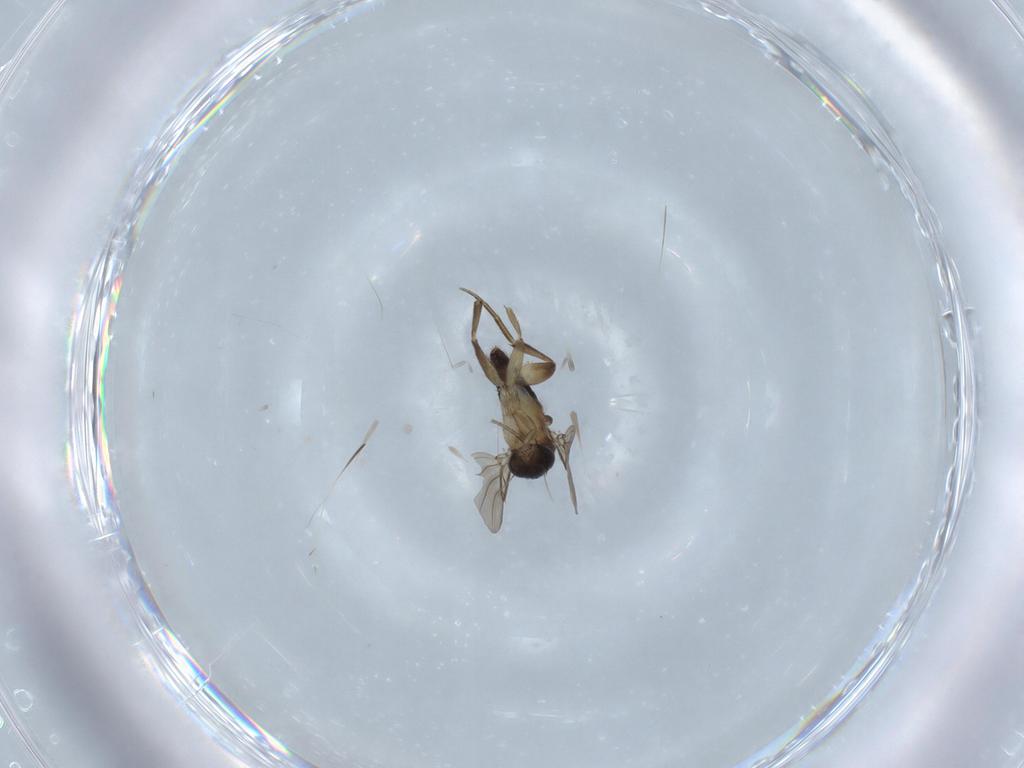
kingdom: Animalia
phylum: Arthropoda
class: Insecta
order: Diptera
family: Phoridae
